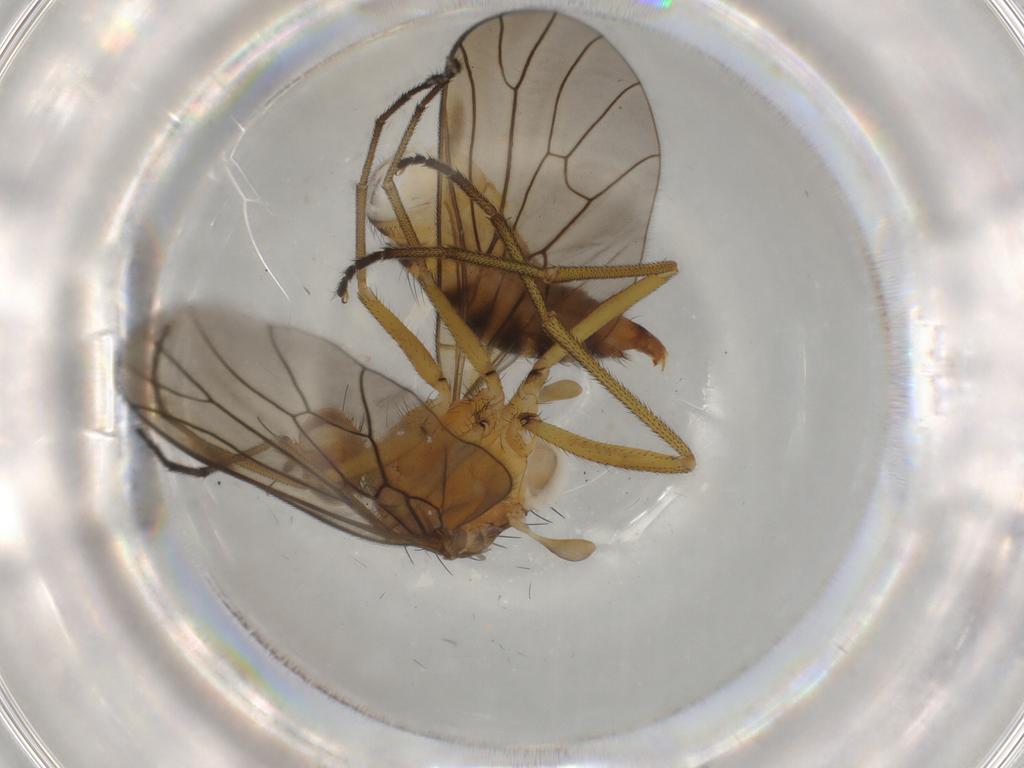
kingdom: Animalia
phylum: Arthropoda
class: Insecta
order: Diptera
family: Brachystomatidae
